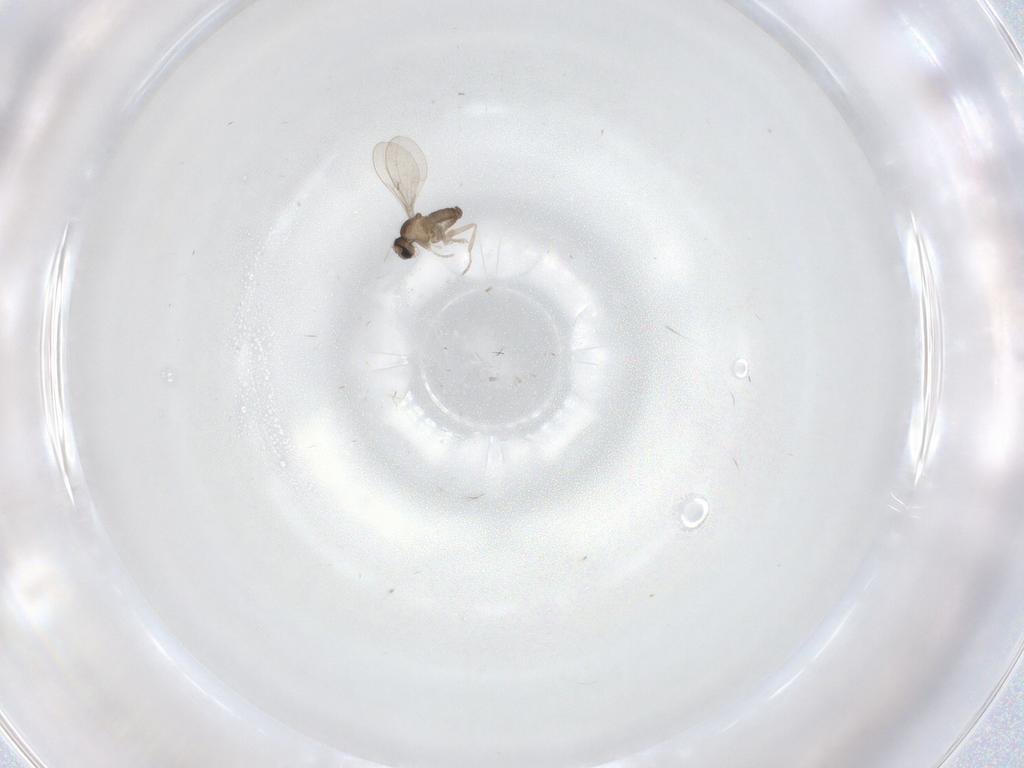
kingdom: Animalia
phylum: Arthropoda
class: Insecta
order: Diptera
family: Cecidomyiidae
